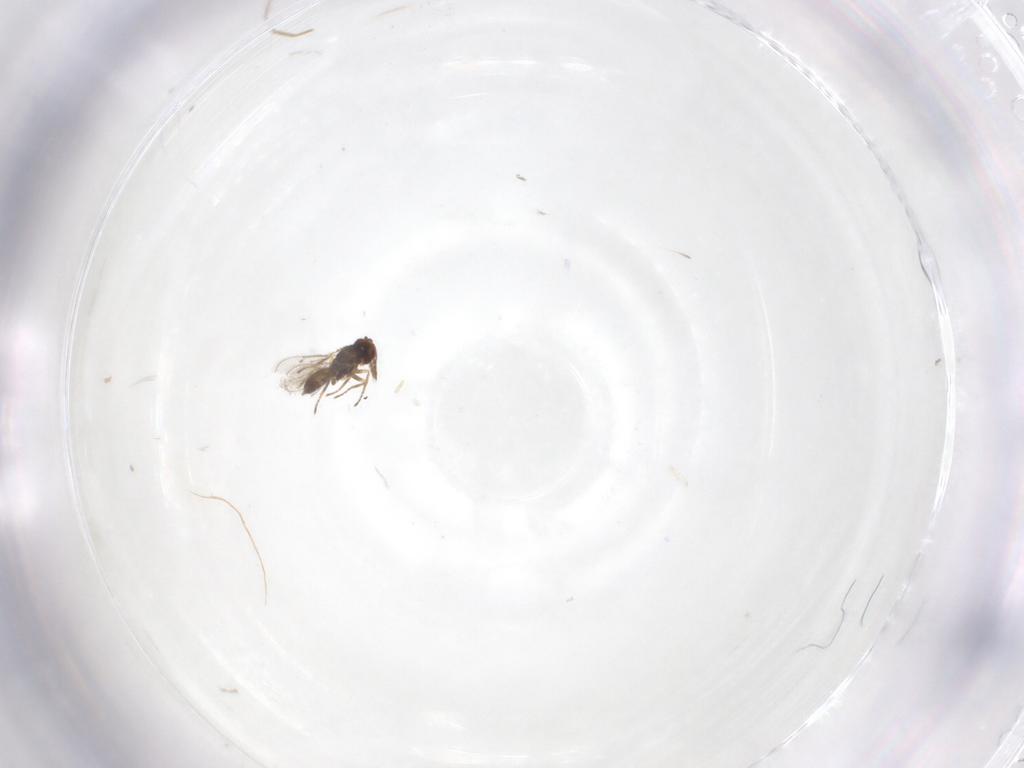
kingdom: Animalia
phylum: Arthropoda
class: Insecta
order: Hymenoptera
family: Eulophidae
